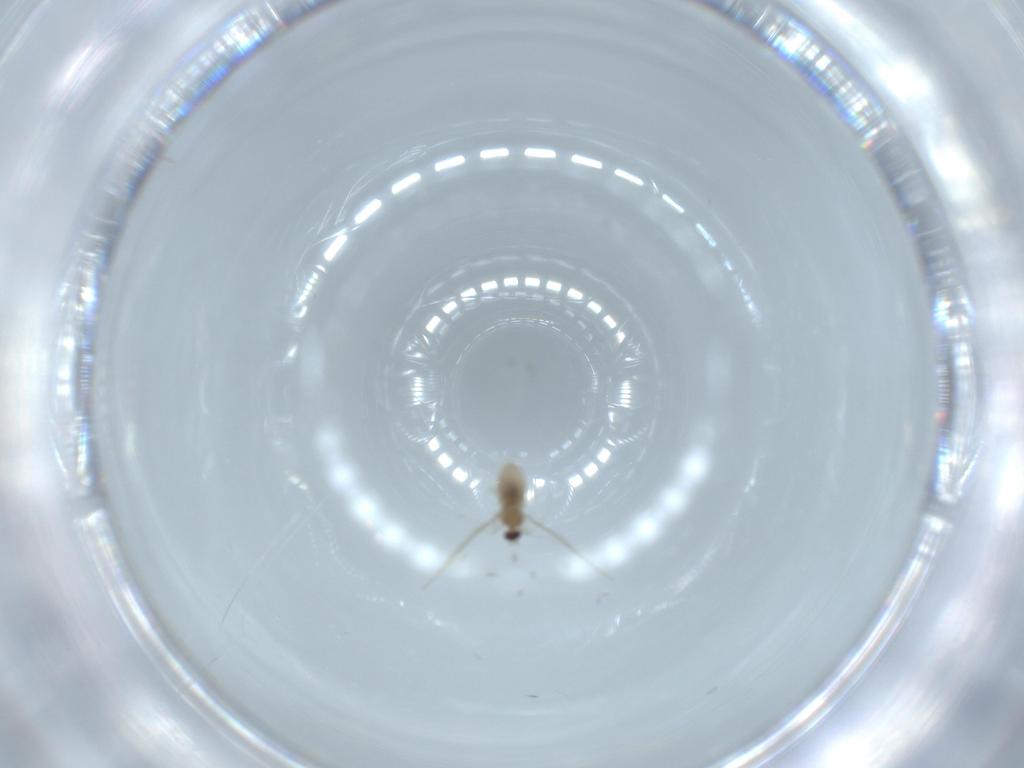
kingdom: Animalia
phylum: Arthropoda
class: Insecta
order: Diptera
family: Cecidomyiidae
